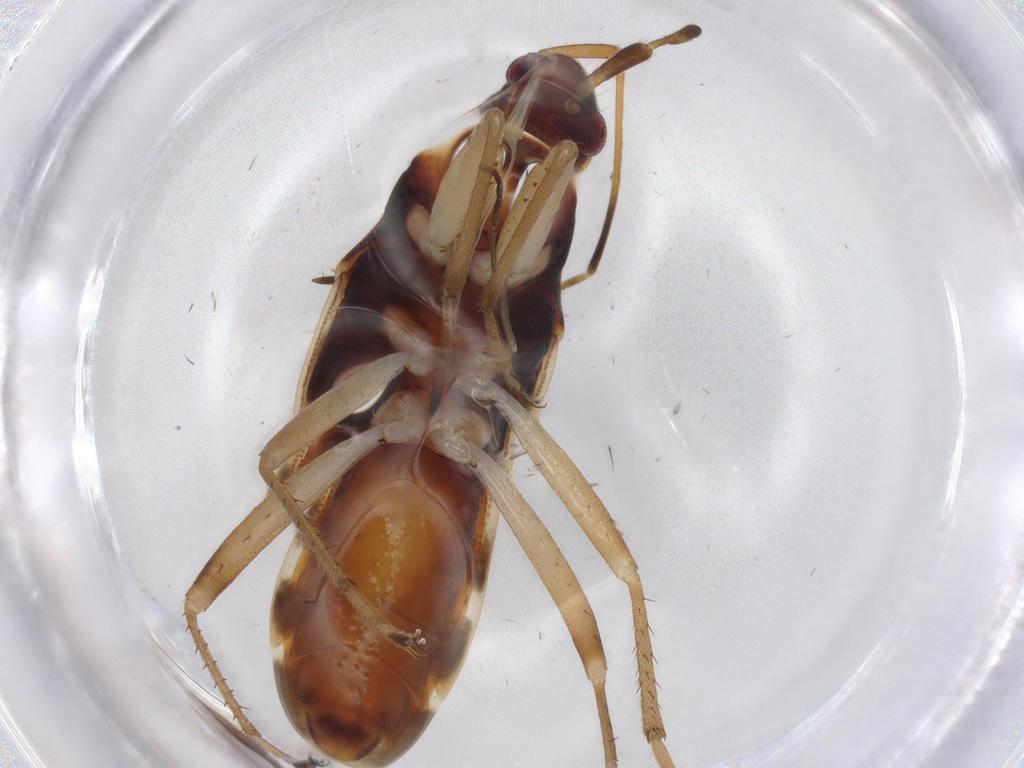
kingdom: Animalia
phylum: Arthropoda
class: Insecta
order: Hemiptera
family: Rhyparochromidae
